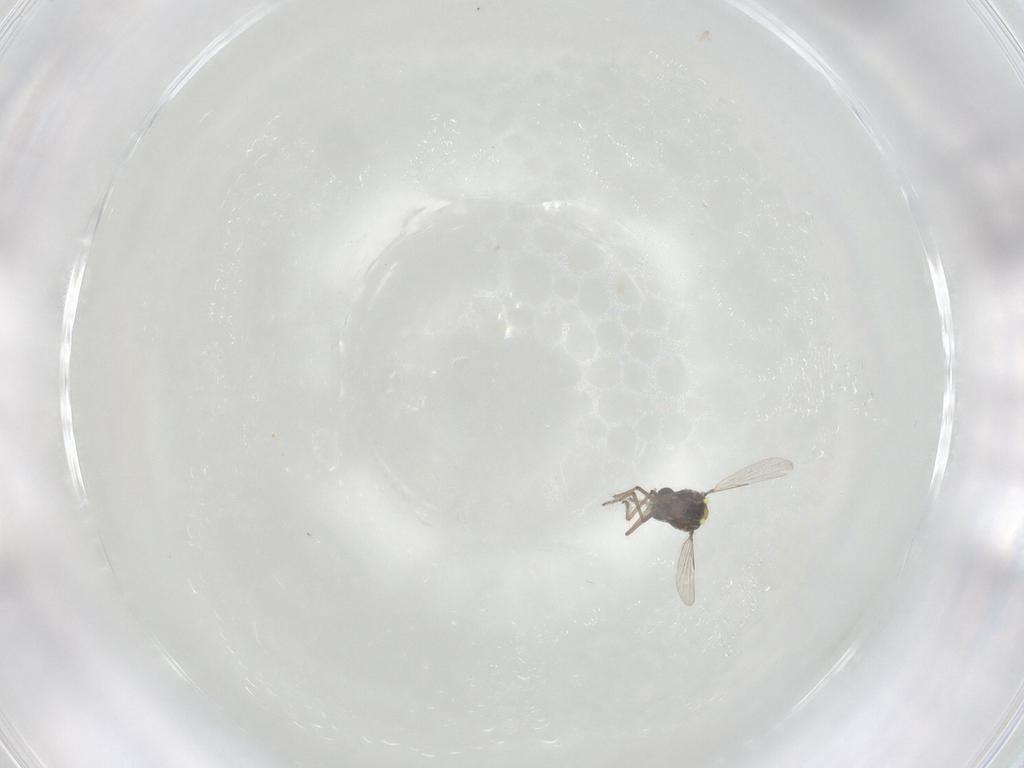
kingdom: Animalia
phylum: Arthropoda
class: Insecta
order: Diptera
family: Ceratopogonidae
